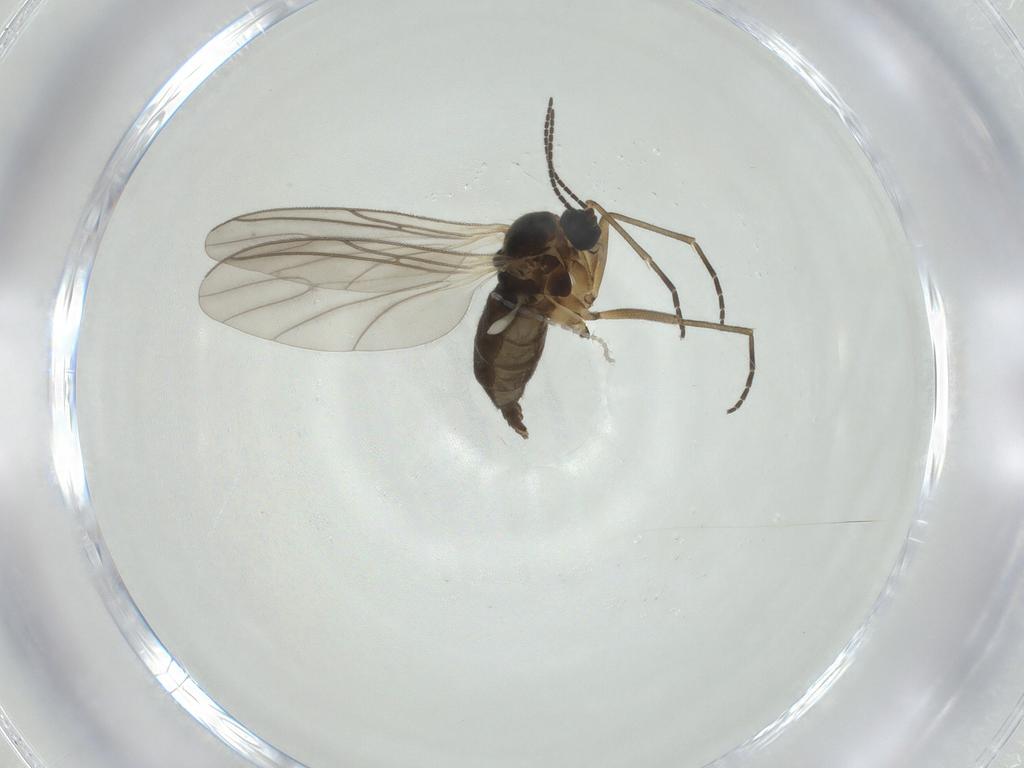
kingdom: Animalia
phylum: Arthropoda
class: Insecta
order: Diptera
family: Cecidomyiidae
